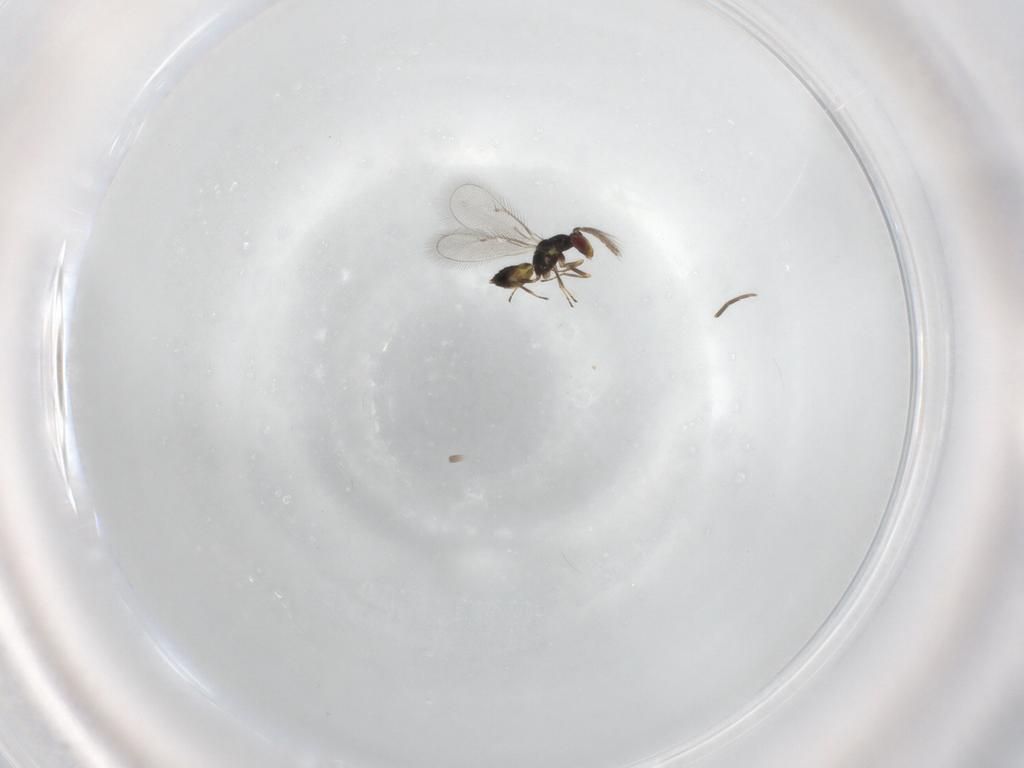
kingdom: Animalia
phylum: Arthropoda
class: Insecta
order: Hymenoptera
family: Eulophidae
